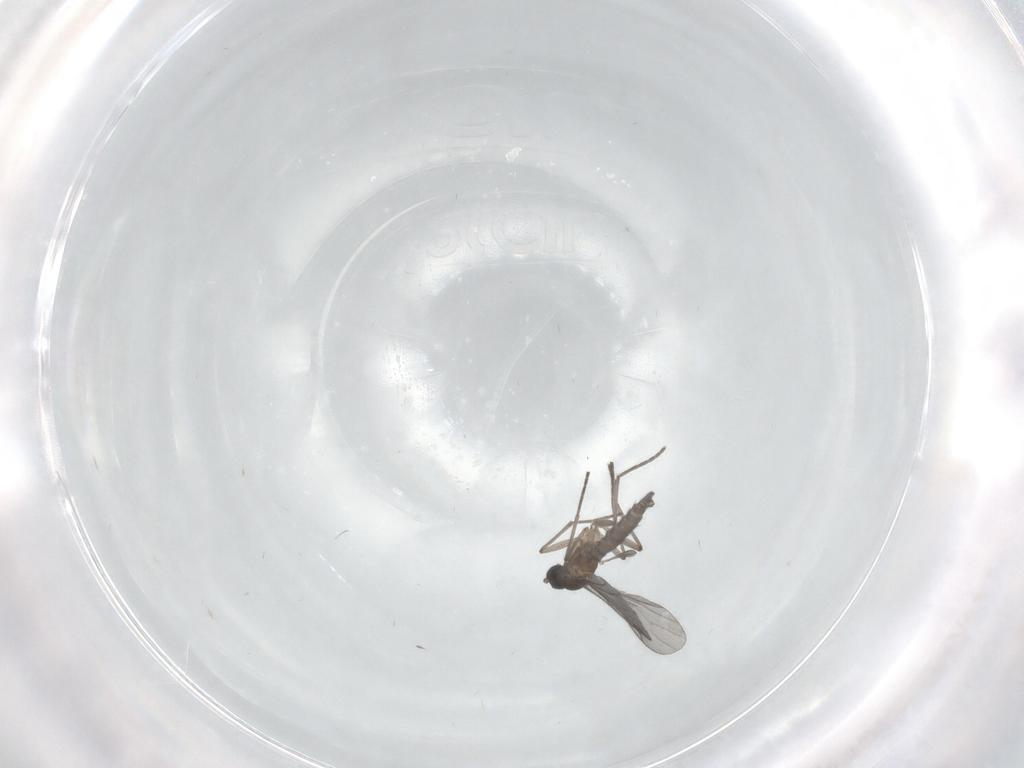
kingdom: Animalia
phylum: Arthropoda
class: Insecta
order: Diptera
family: Sciaridae
